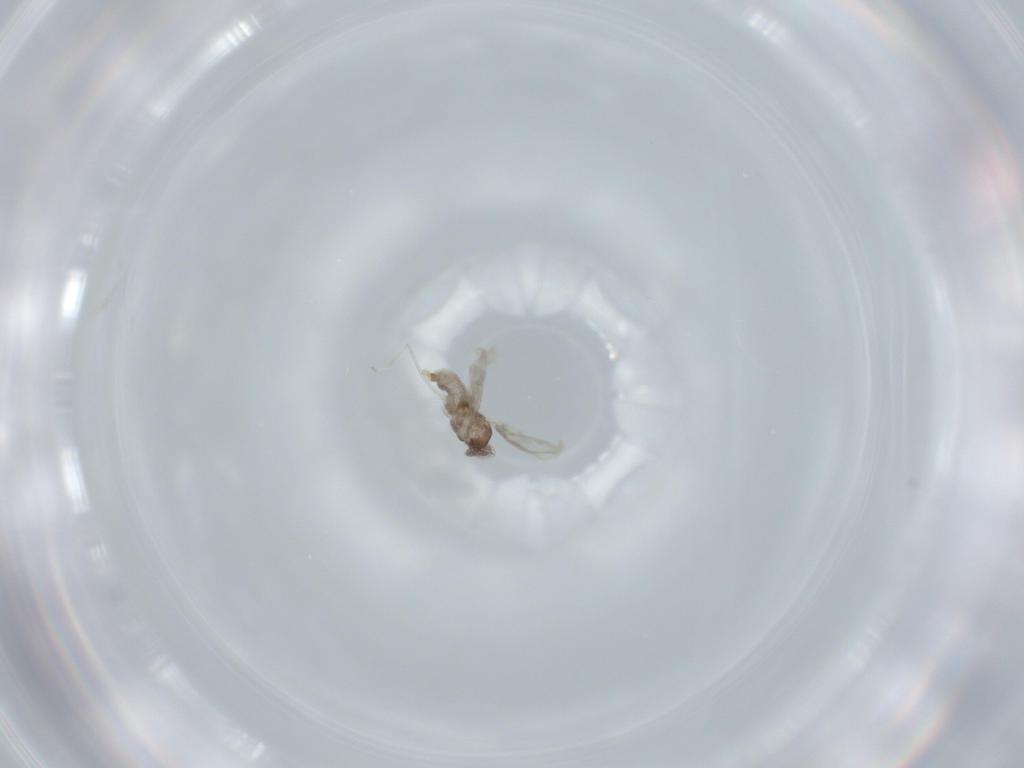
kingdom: Animalia
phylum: Arthropoda
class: Insecta
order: Diptera
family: Cecidomyiidae
